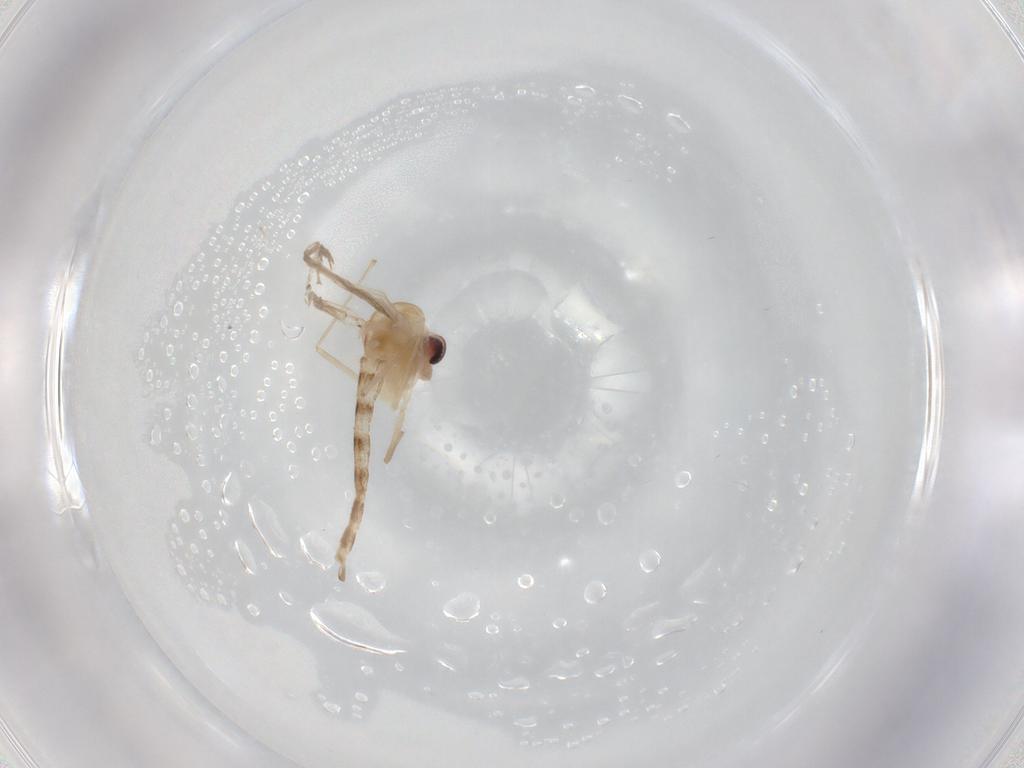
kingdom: Animalia
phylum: Arthropoda
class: Insecta
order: Diptera
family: Chironomidae
